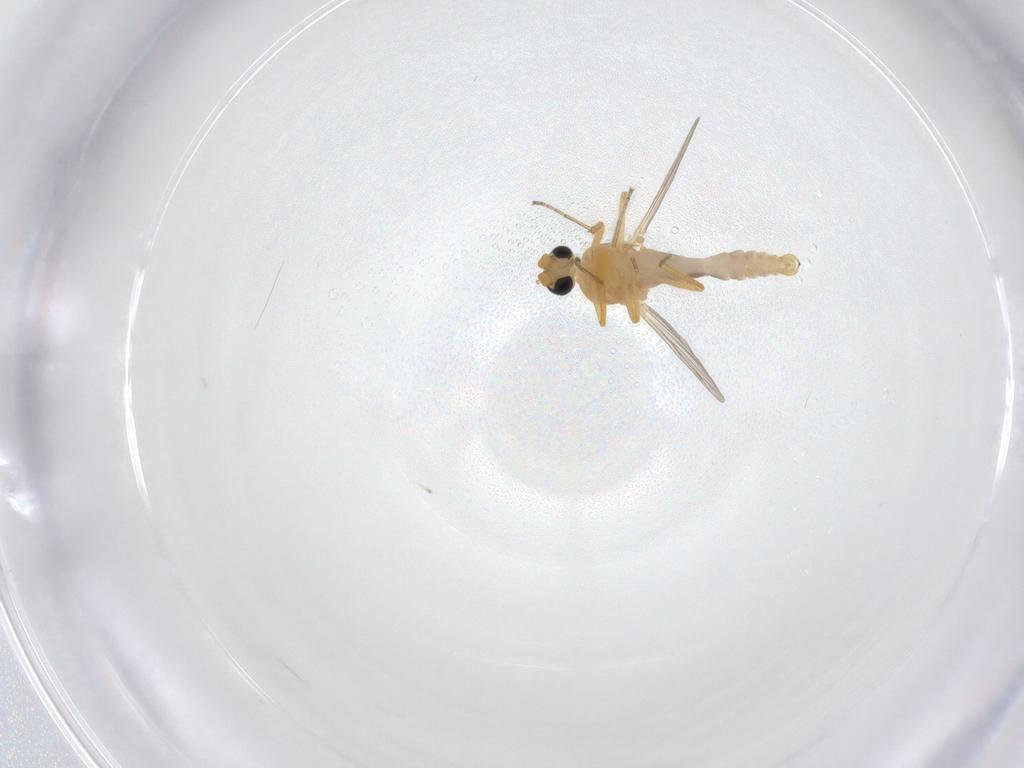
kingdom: Animalia
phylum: Arthropoda
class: Insecta
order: Diptera
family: Ceratopogonidae
